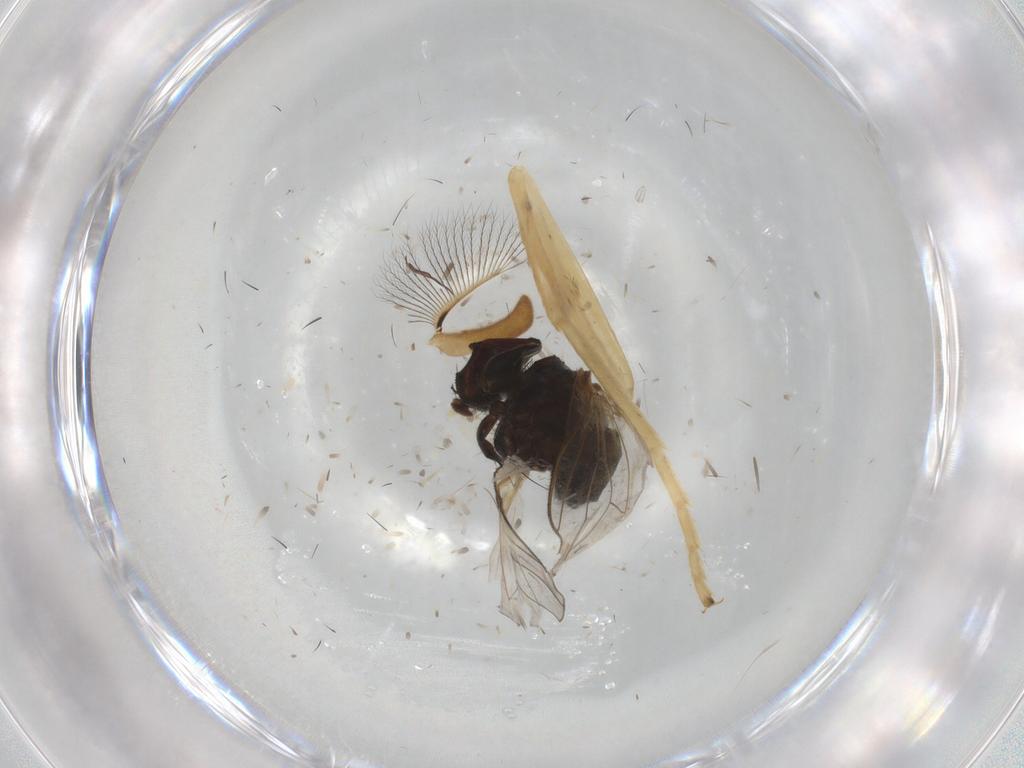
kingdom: Animalia
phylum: Arthropoda
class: Insecta
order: Diptera
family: Glossinidae
